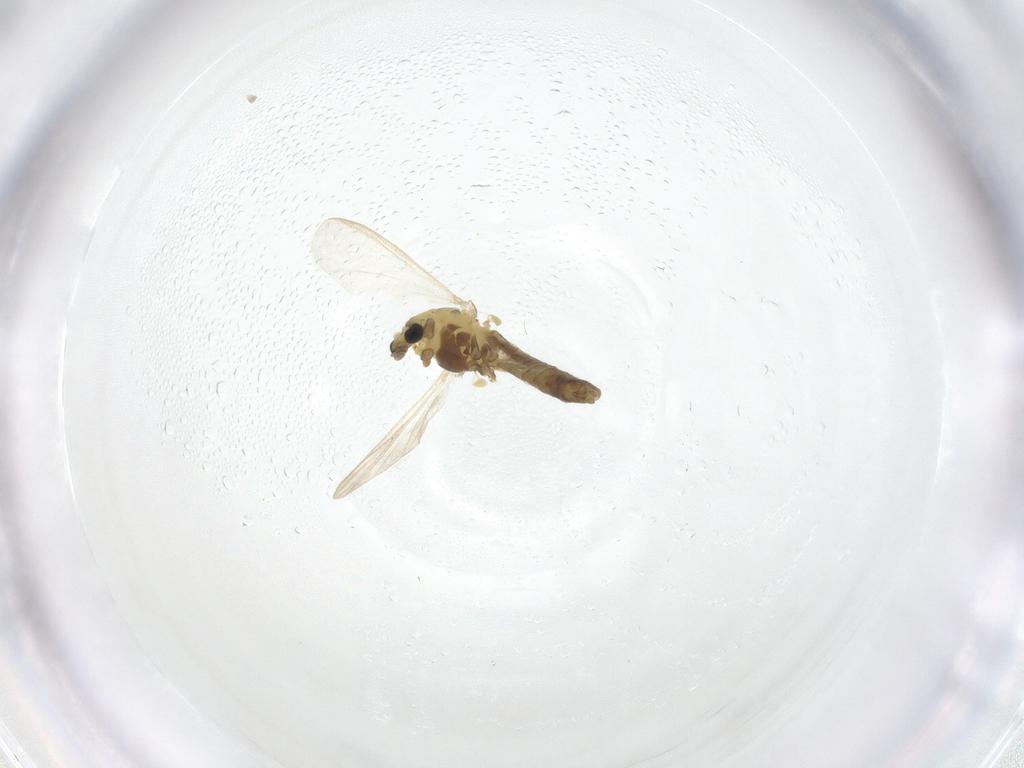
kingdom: Animalia
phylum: Arthropoda
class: Insecta
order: Diptera
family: Chironomidae
